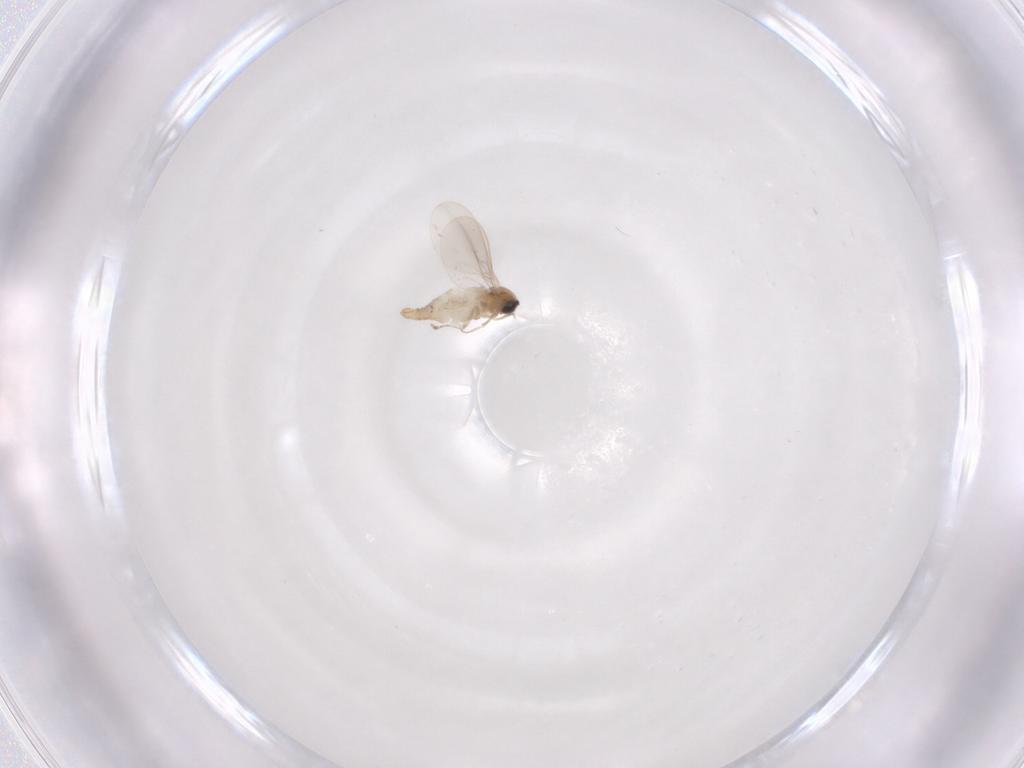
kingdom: Animalia
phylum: Arthropoda
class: Insecta
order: Diptera
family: Cecidomyiidae
